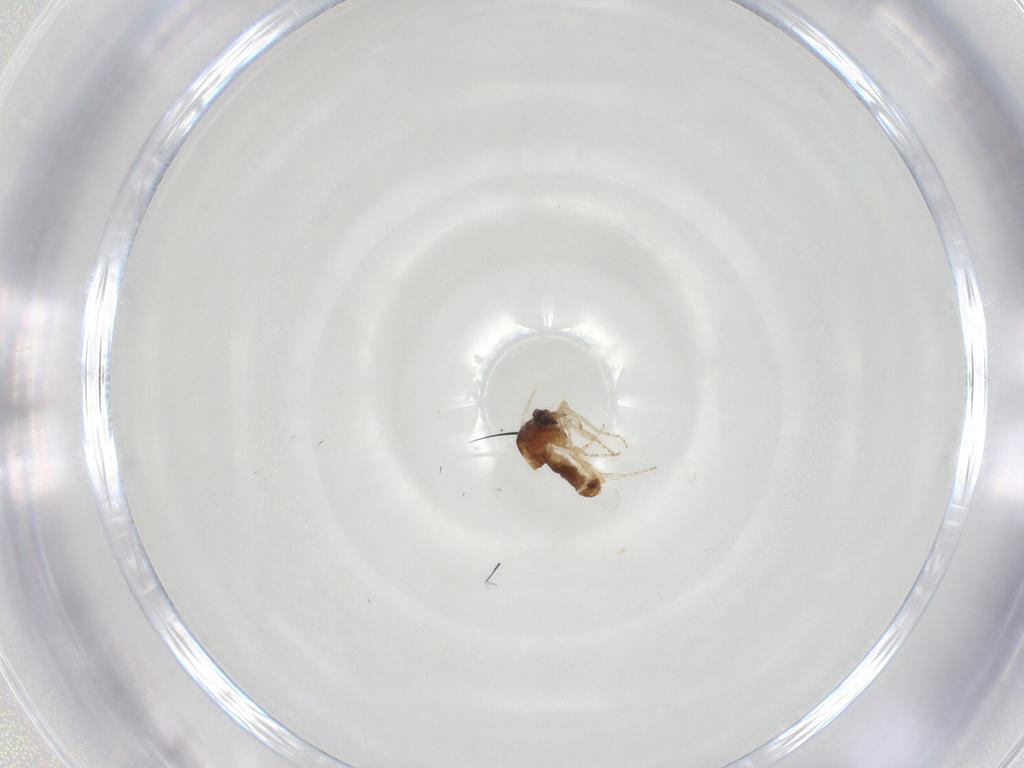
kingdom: Animalia
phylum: Arthropoda
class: Insecta
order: Diptera
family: Ceratopogonidae
